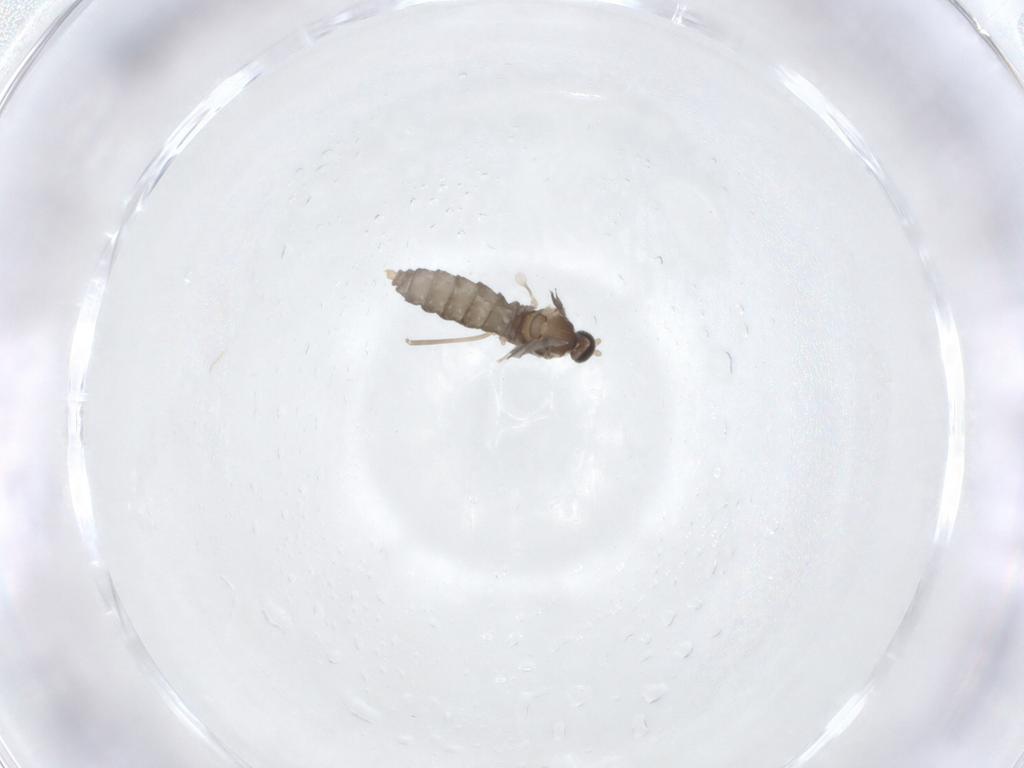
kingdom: Animalia
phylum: Arthropoda
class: Insecta
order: Diptera
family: Cecidomyiidae
